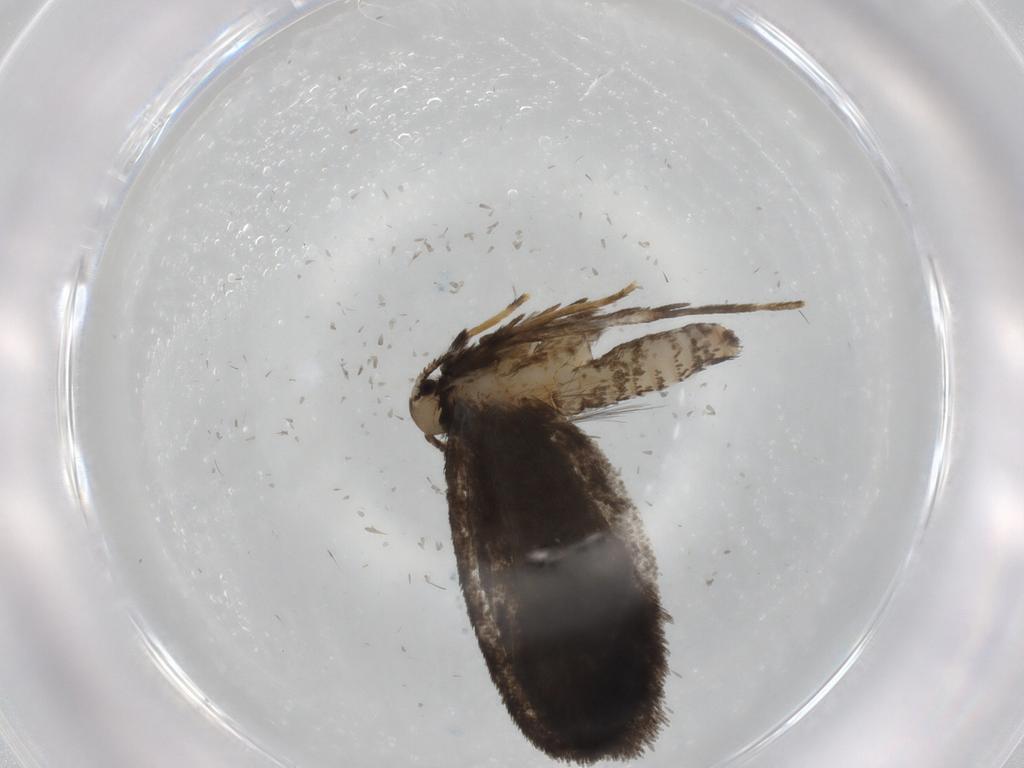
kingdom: Animalia
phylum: Arthropoda
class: Insecta
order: Lepidoptera
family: Psychidae
